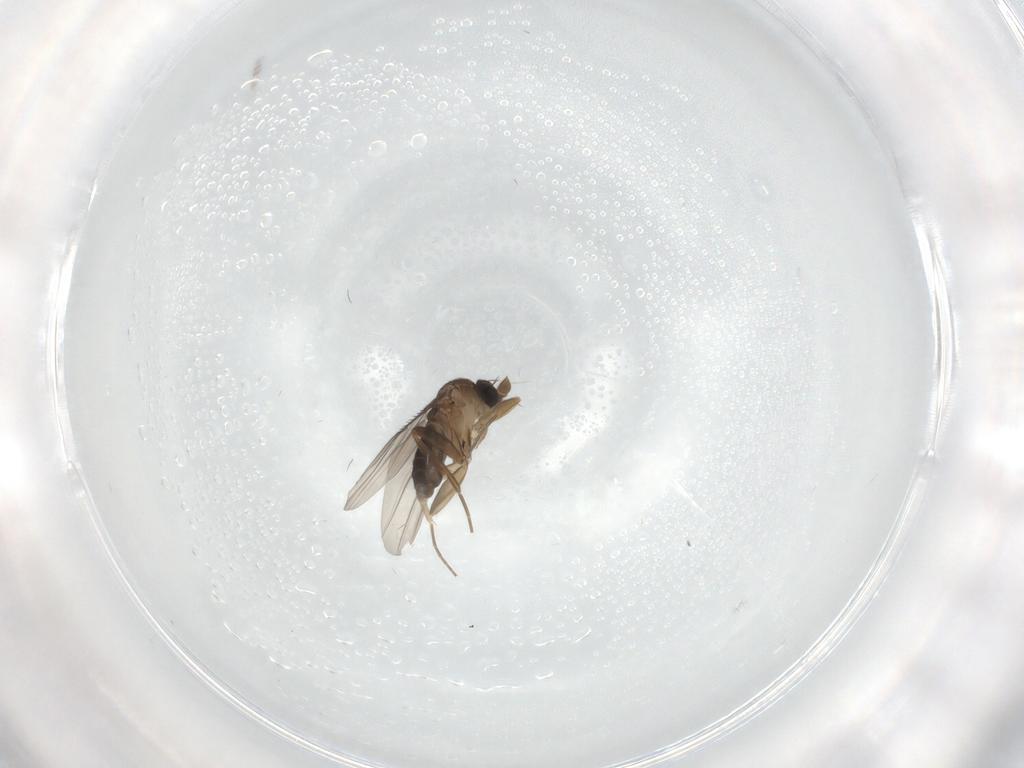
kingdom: Animalia
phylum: Arthropoda
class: Insecta
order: Diptera
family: Phoridae
